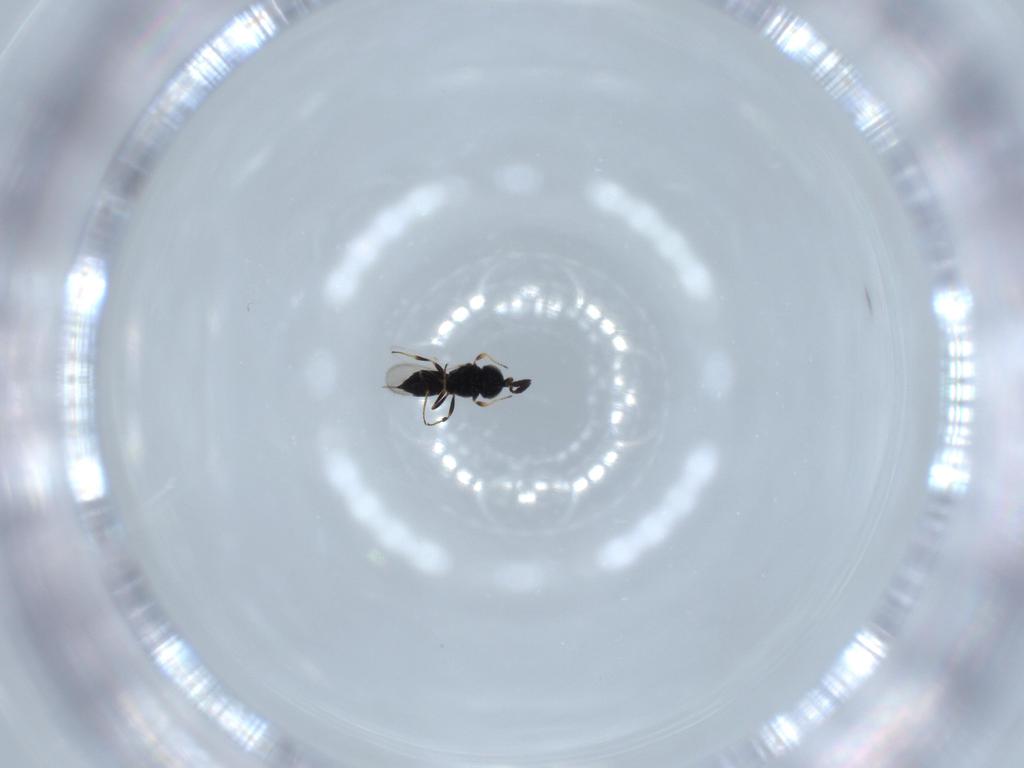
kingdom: Animalia
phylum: Arthropoda
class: Insecta
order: Hymenoptera
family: Scelionidae
